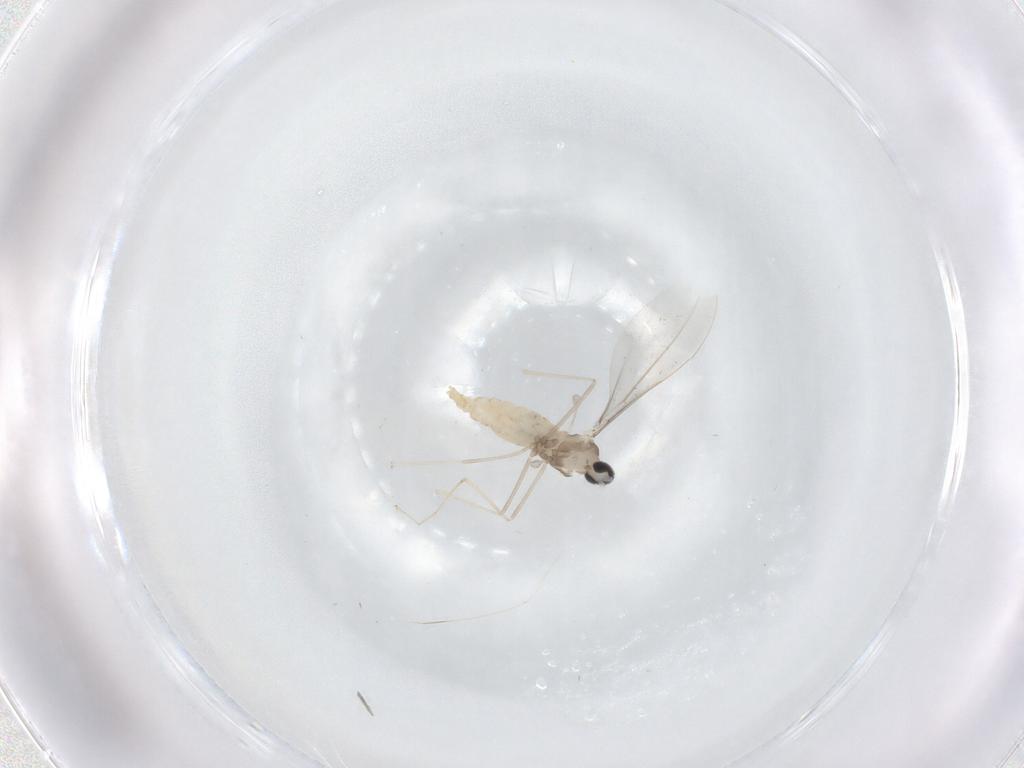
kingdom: Animalia
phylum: Arthropoda
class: Insecta
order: Diptera
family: Cecidomyiidae
